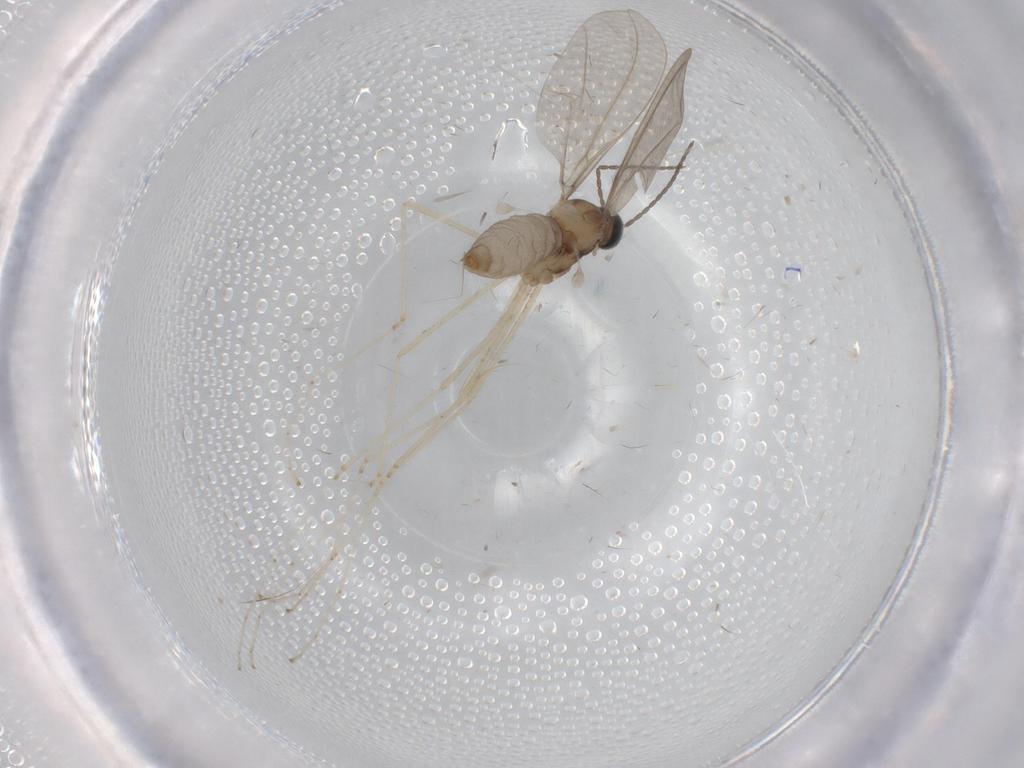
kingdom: Animalia
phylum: Arthropoda
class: Insecta
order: Diptera
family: Cecidomyiidae
